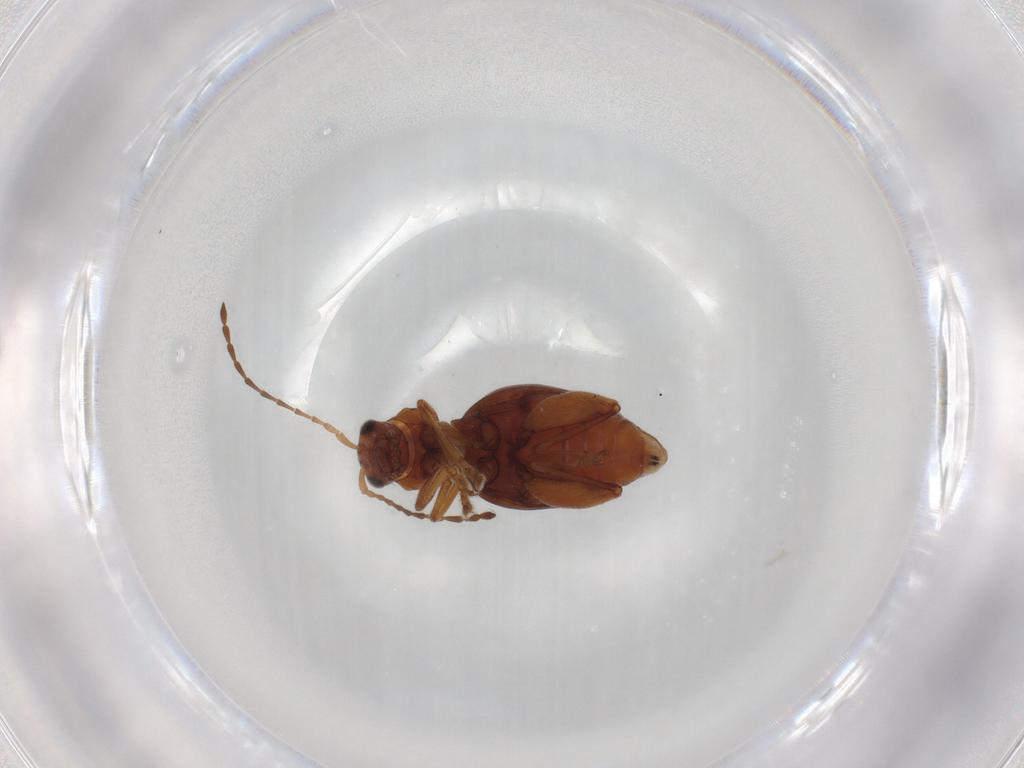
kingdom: Animalia
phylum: Arthropoda
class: Insecta
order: Coleoptera
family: Chrysomelidae
